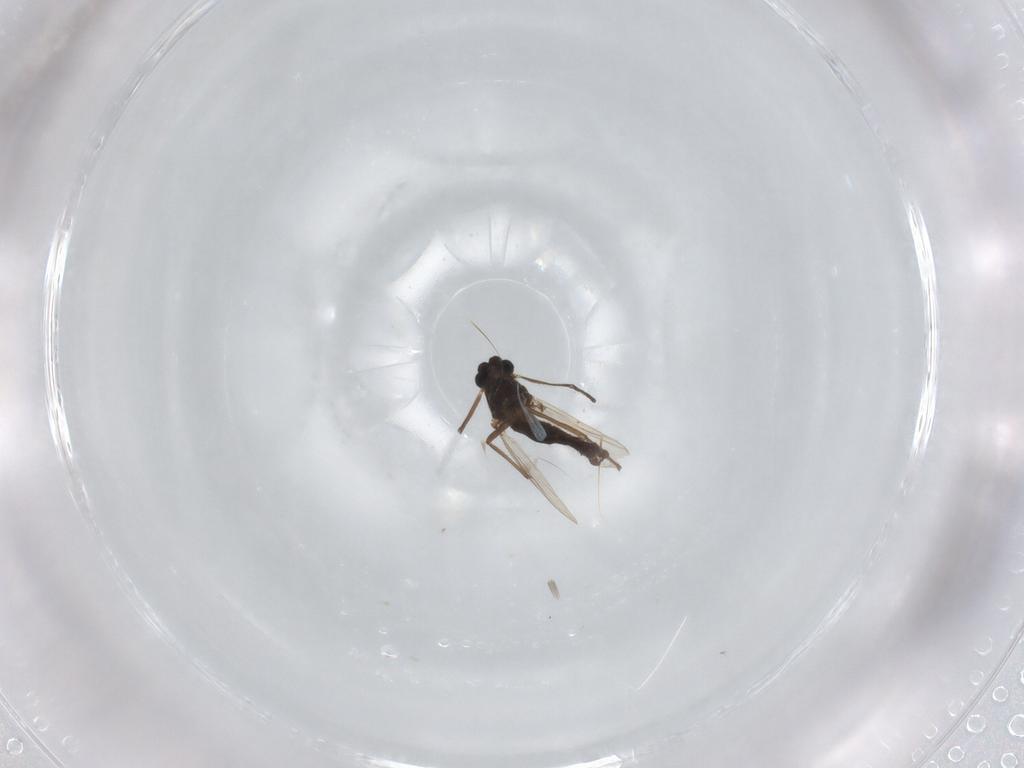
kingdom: Animalia
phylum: Arthropoda
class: Insecta
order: Diptera
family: Chironomidae
